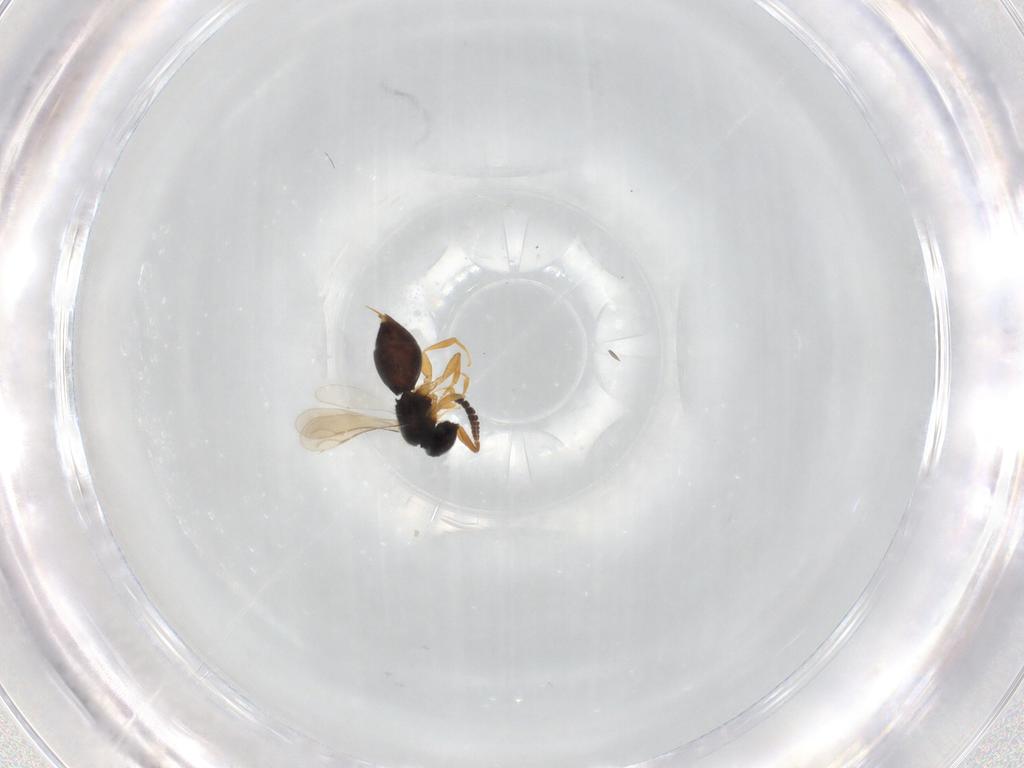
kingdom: Animalia
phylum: Arthropoda
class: Insecta
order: Hymenoptera
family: Ceraphronidae
